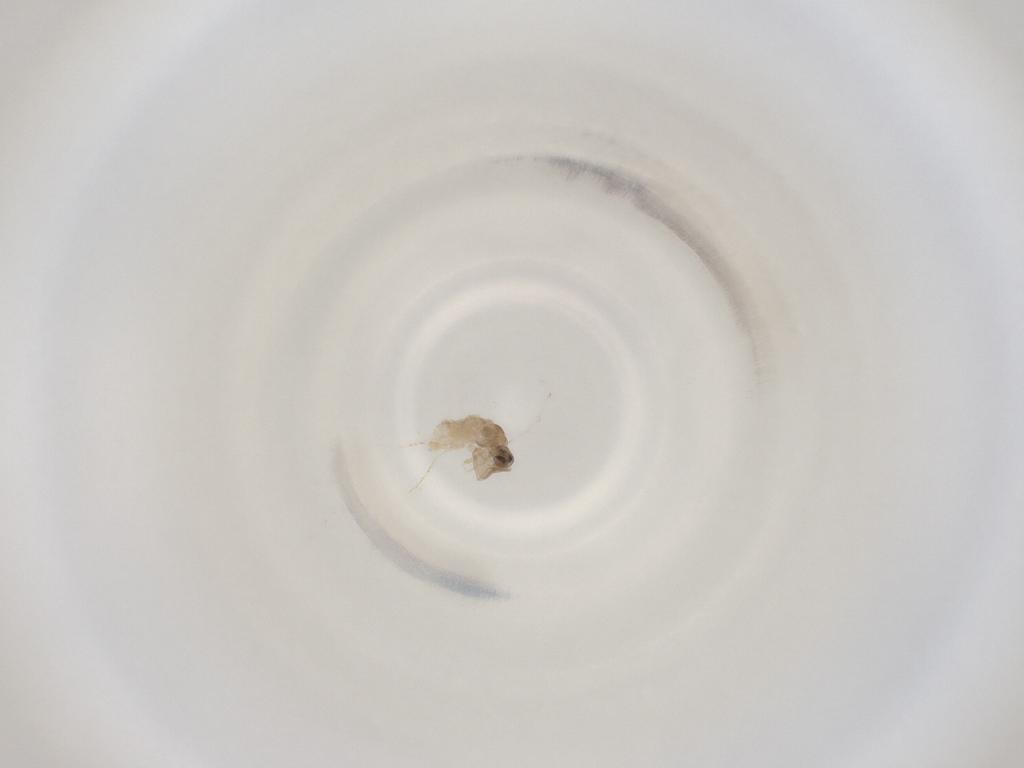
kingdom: Animalia
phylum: Arthropoda
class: Insecta
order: Diptera
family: Cecidomyiidae
